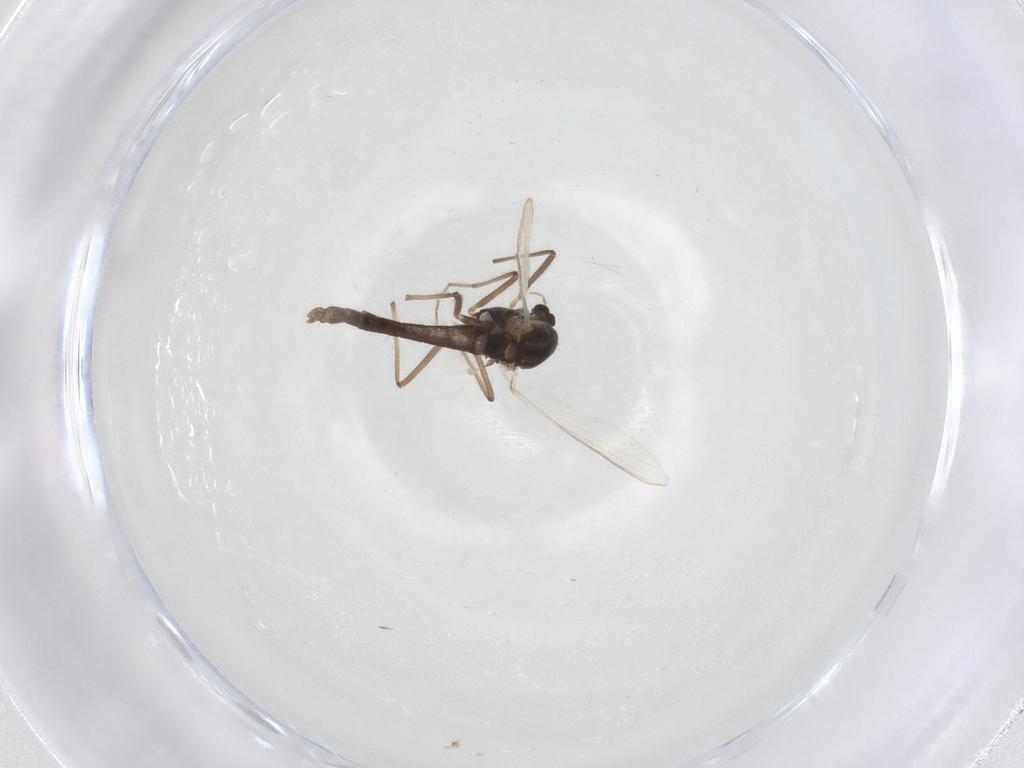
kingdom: Animalia
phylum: Arthropoda
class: Insecta
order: Diptera
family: Chironomidae
